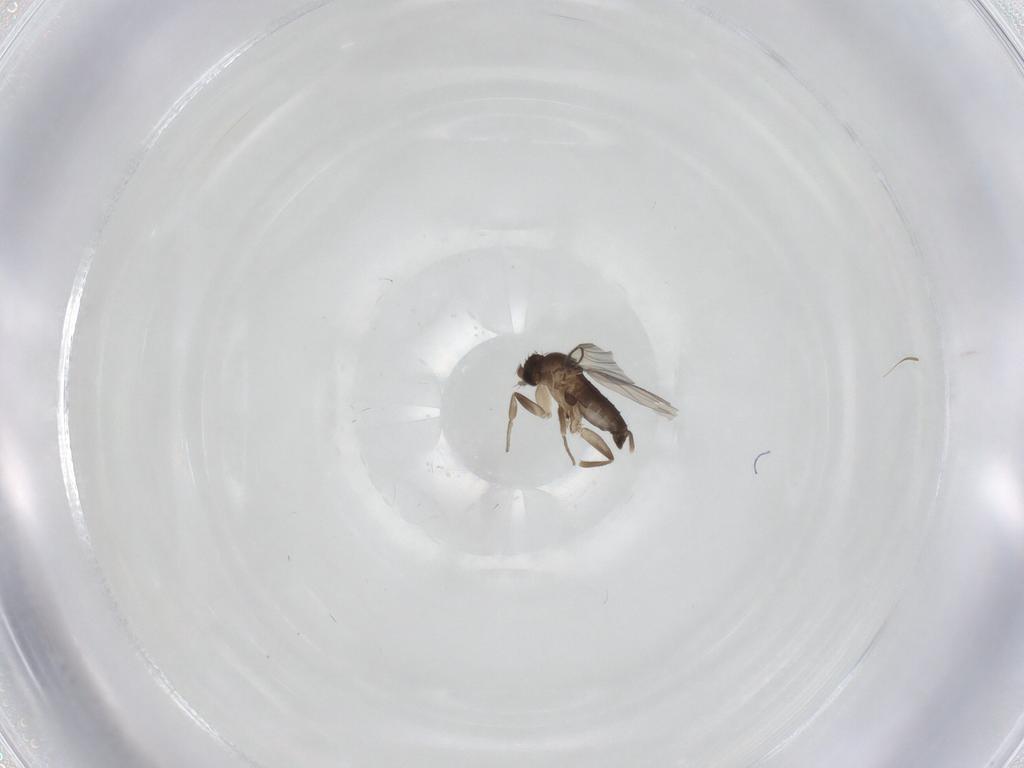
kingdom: Animalia
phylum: Arthropoda
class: Insecta
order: Diptera
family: Phoridae
